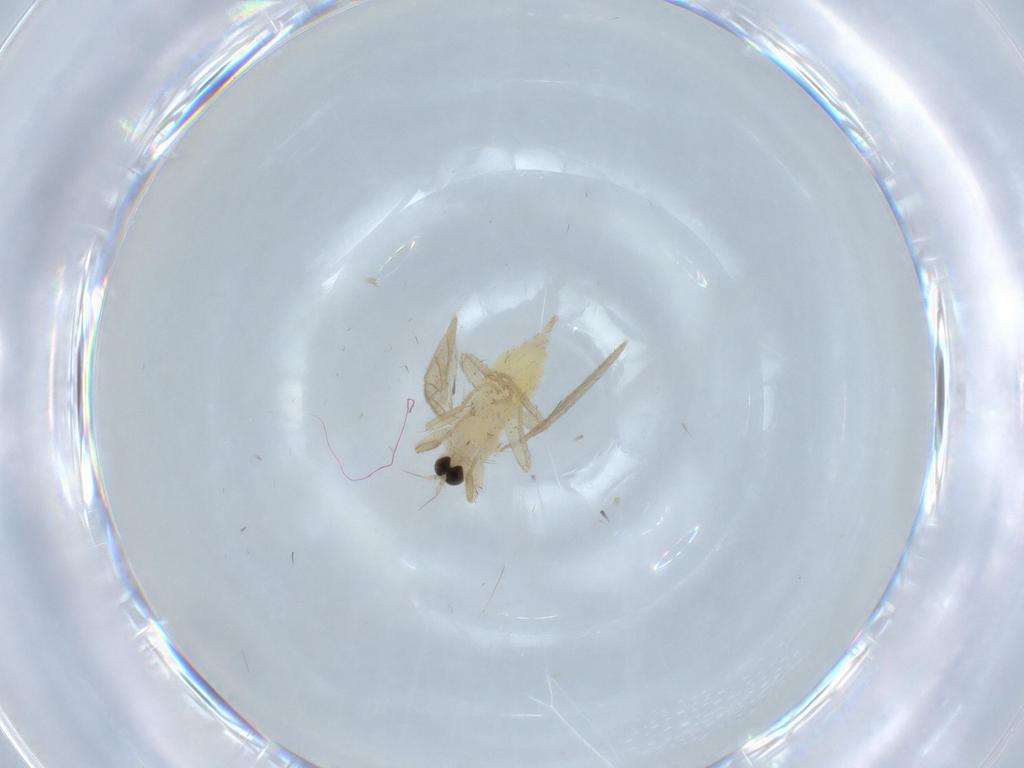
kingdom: Animalia
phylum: Arthropoda
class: Insecta
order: Diptera
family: Hybotidae
